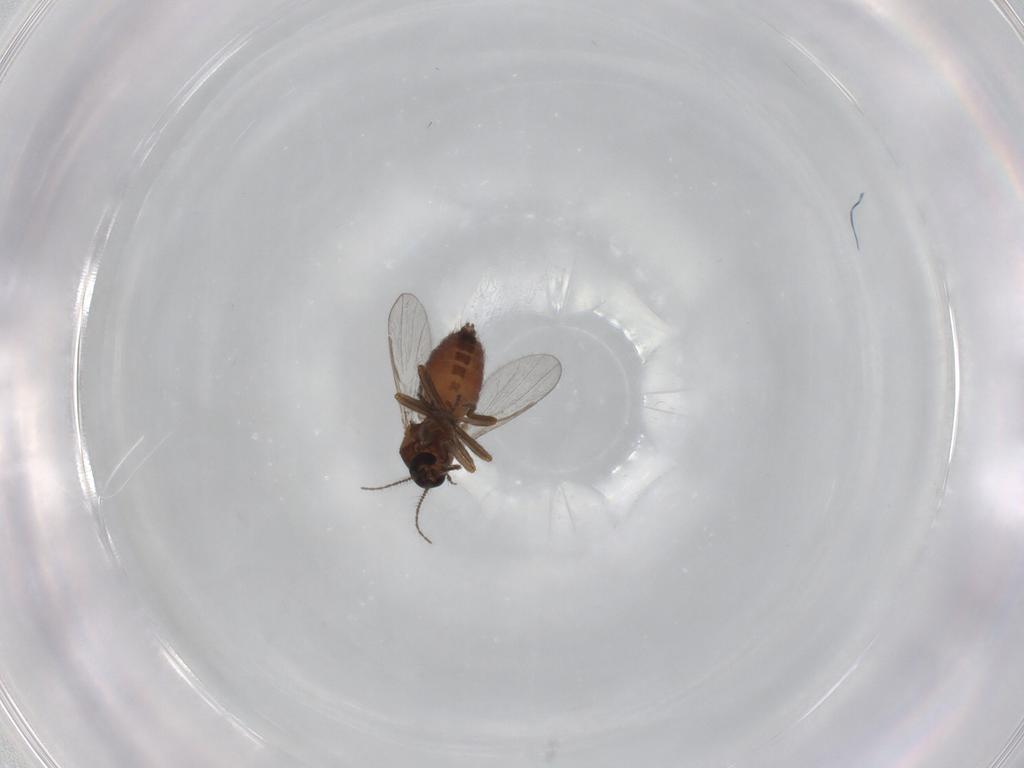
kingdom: Animalia
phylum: Arthropoda
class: Insecta
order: Diptera
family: Ceratopogonidae
